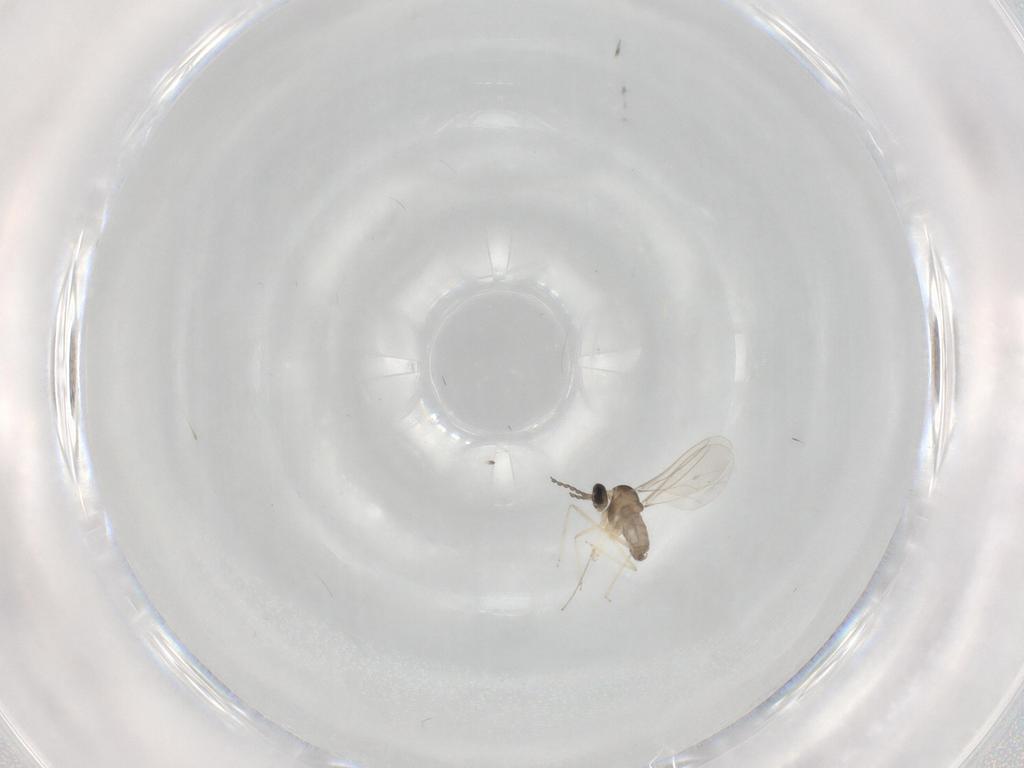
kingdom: Animalia
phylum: Arthropoda
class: Insecta
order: Diptera
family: Cecidomyiidae
